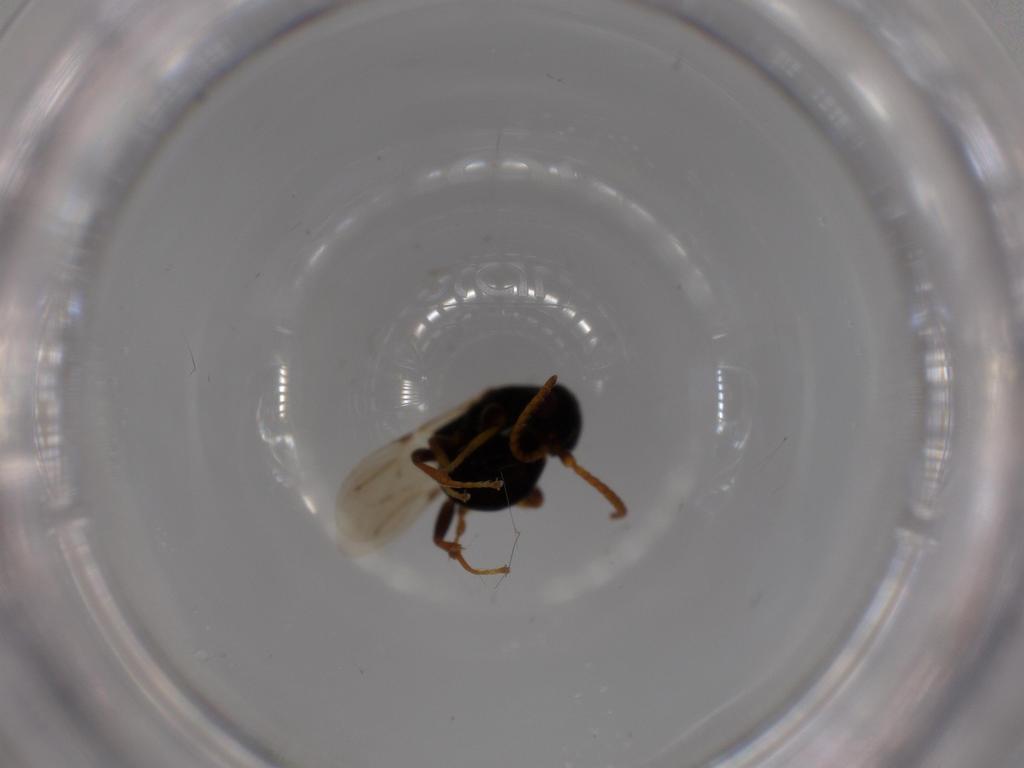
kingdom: Animalia
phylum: Arthropoda
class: Insecta
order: Hymenoptera
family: Bethylidae
